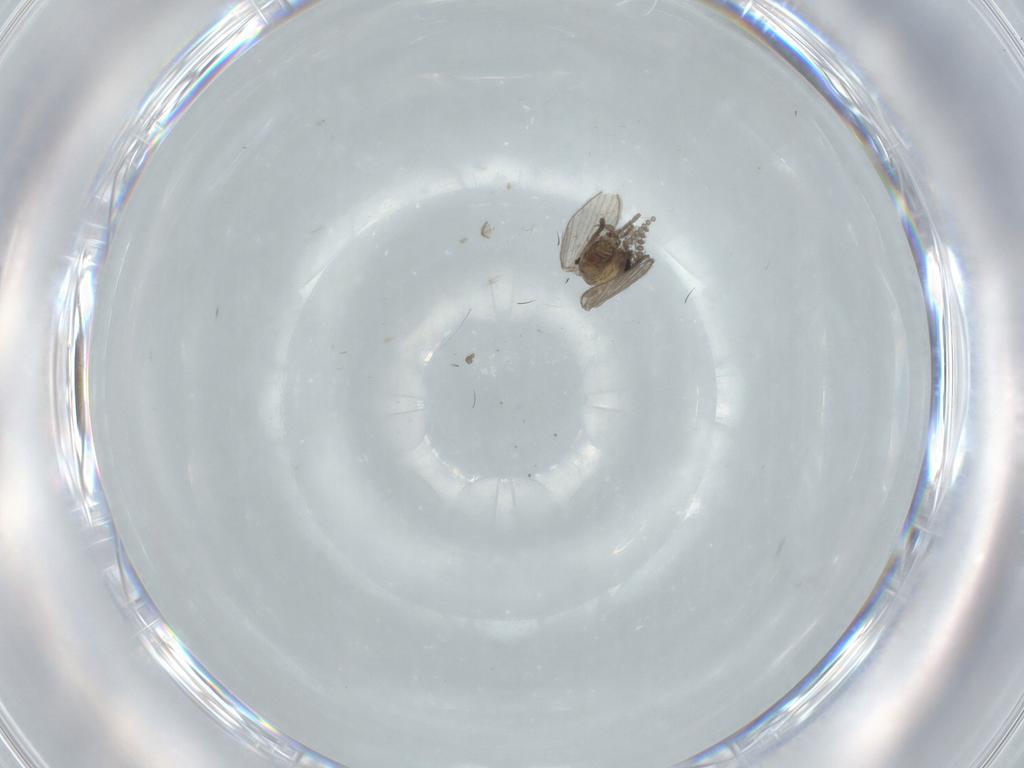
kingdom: Animalia
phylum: Arthropoda
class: Insecta
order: Diptera
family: Psychodidae
